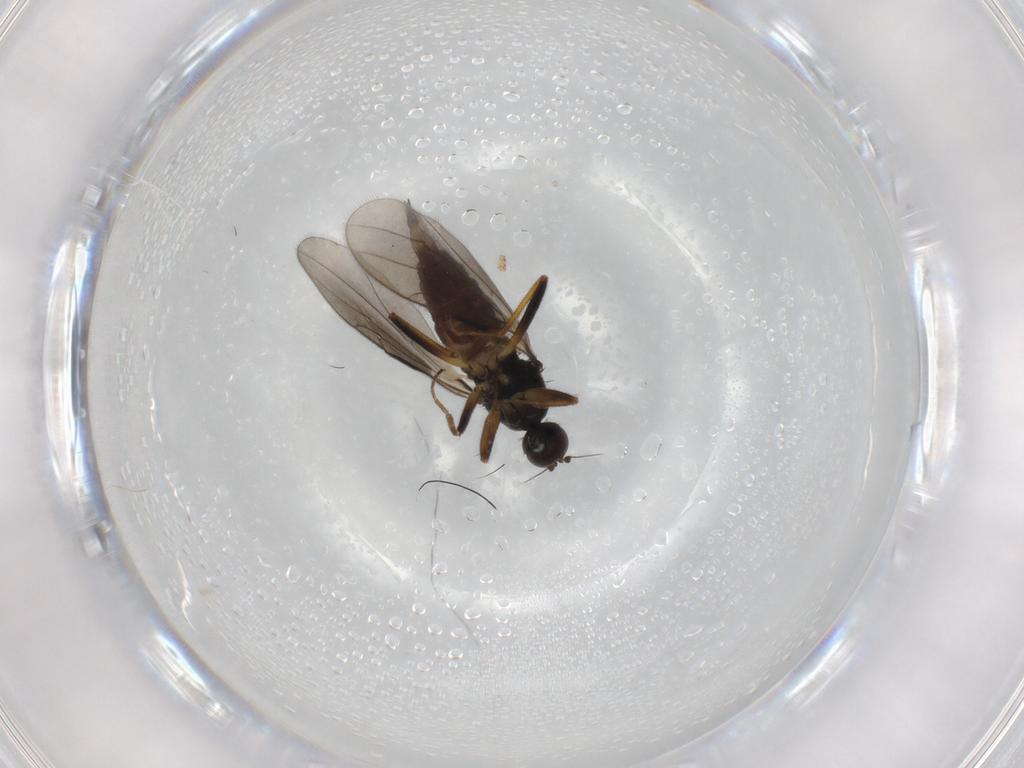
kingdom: Animalia
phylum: Arthropoda
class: Insecta
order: Diptera
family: Hybotidae
